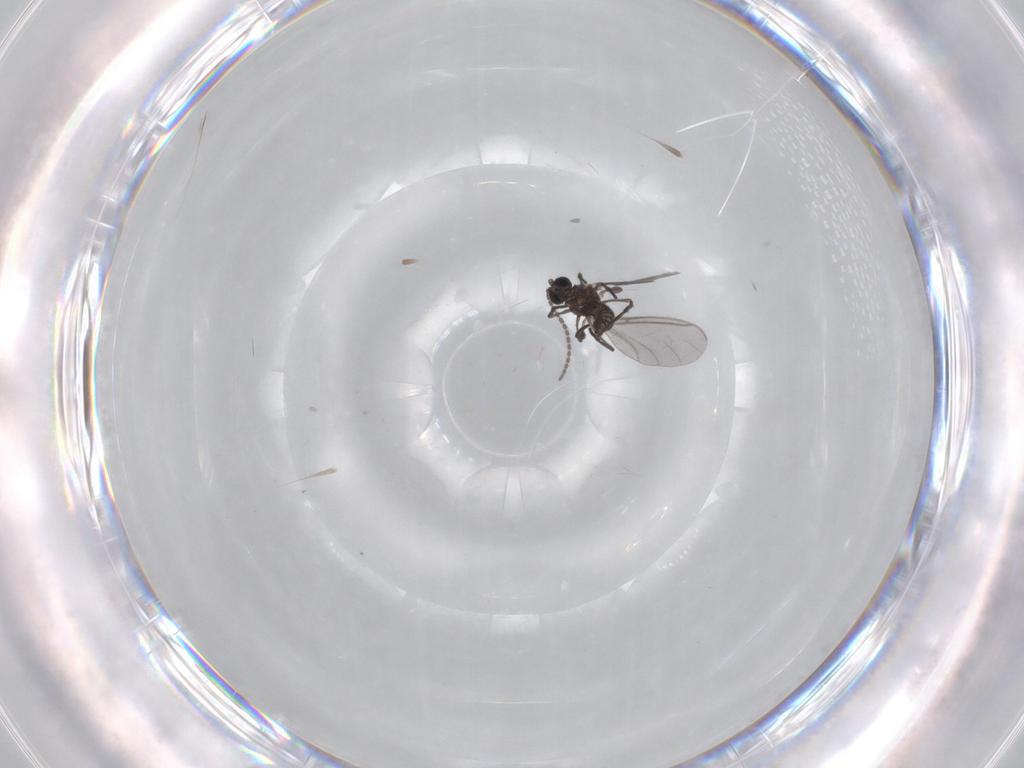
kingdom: Animalia
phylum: Arthropoda
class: Insecta
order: Diptera
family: Sciaridae
